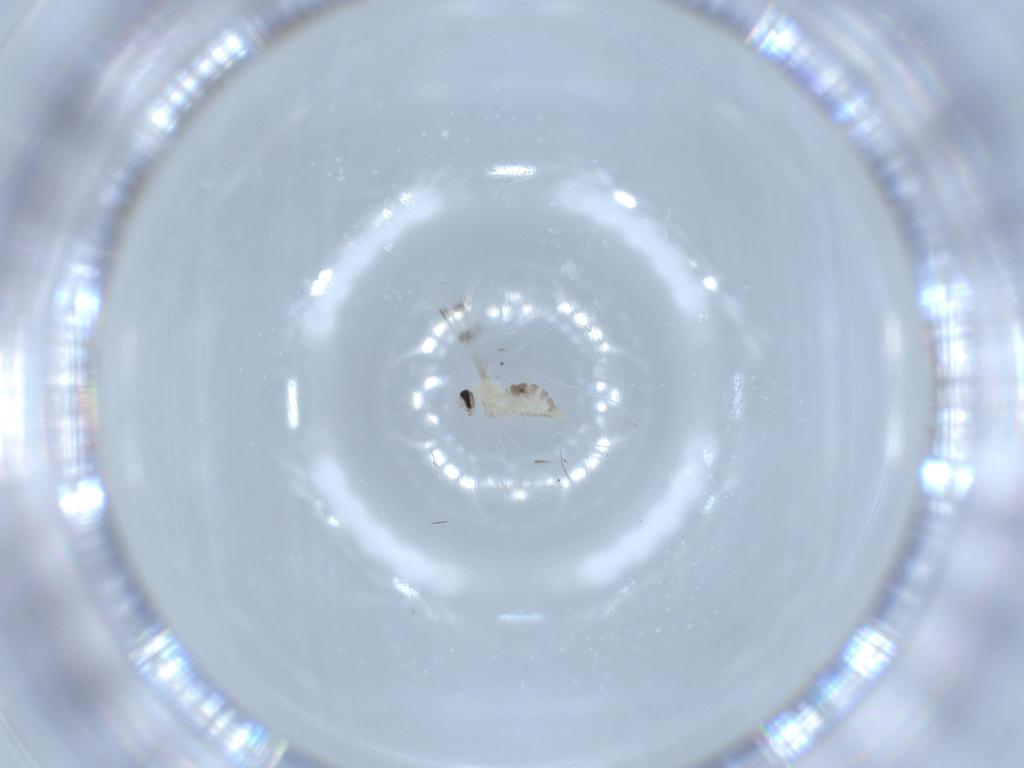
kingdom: Animalia
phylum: Arthropoda
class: Insecta
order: Diptera
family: Cecidomyiidae
